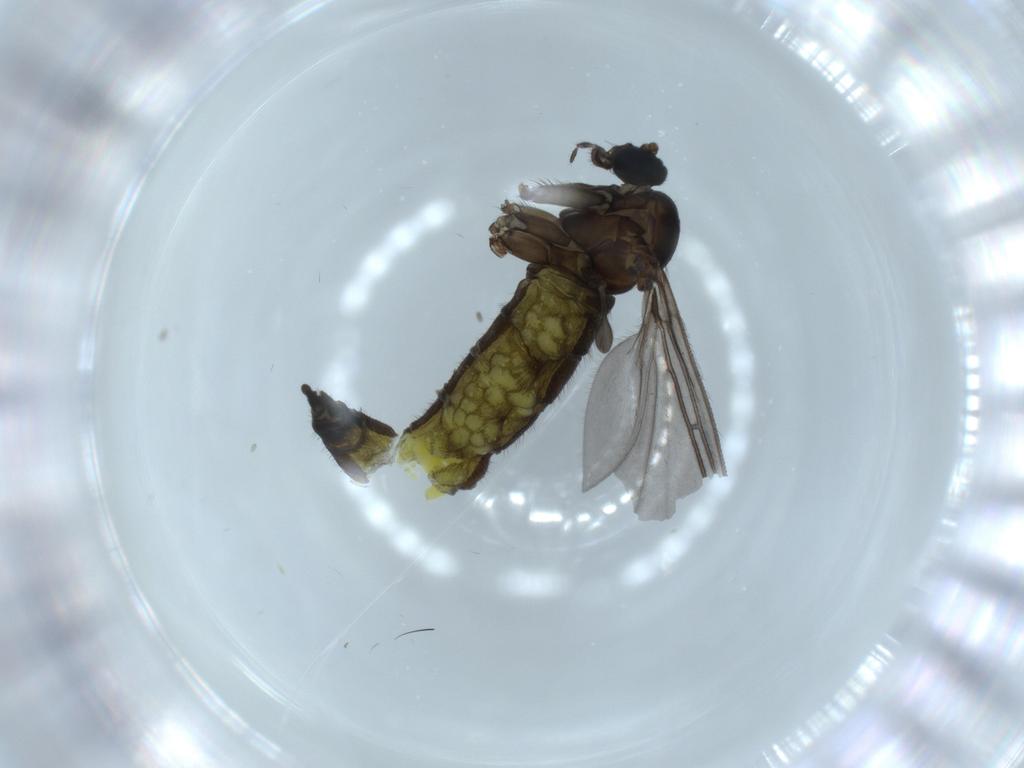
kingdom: Animalia
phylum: Arthropoda
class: Insecta
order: Diptera
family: Sciaridae
